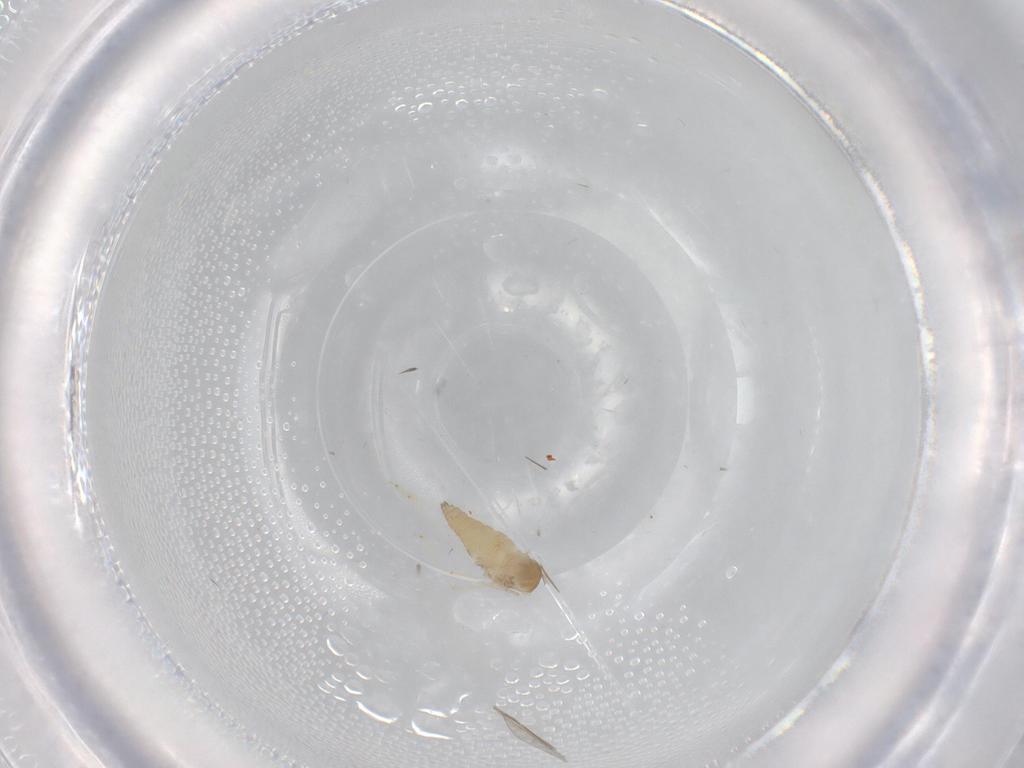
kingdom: Animalia
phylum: Arthropoda
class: Insecta
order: Diptera
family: Cecidomyiidae
